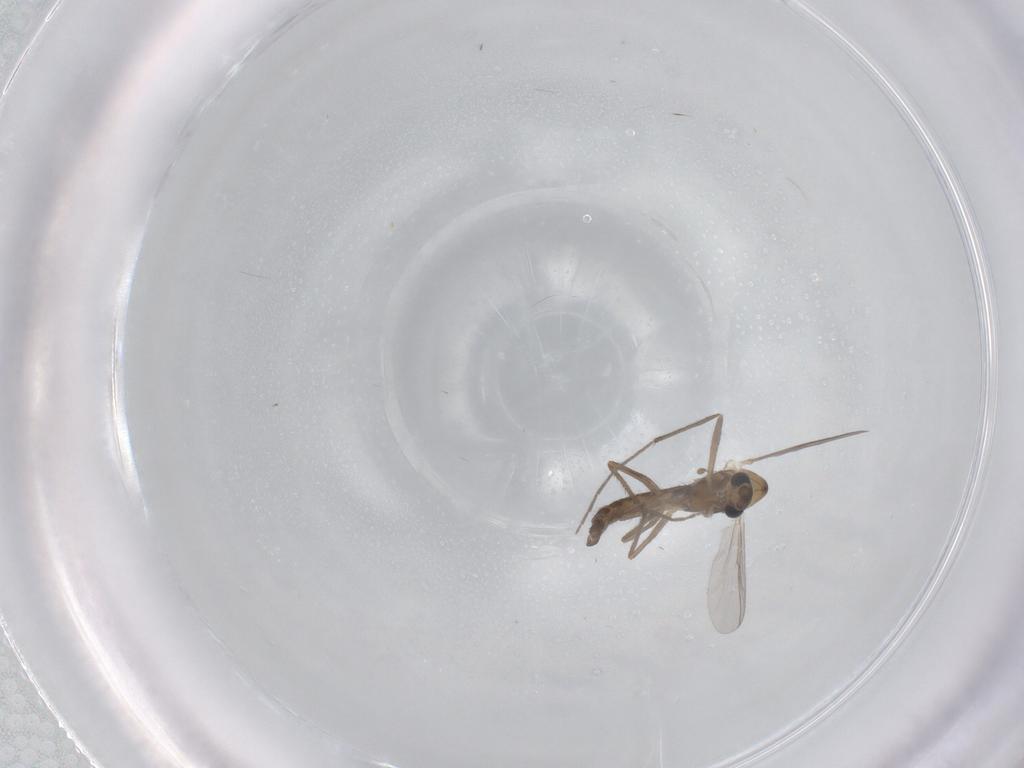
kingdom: Animalia
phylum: Arthropoda
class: Insecta
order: Diptera
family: Chironomidae
